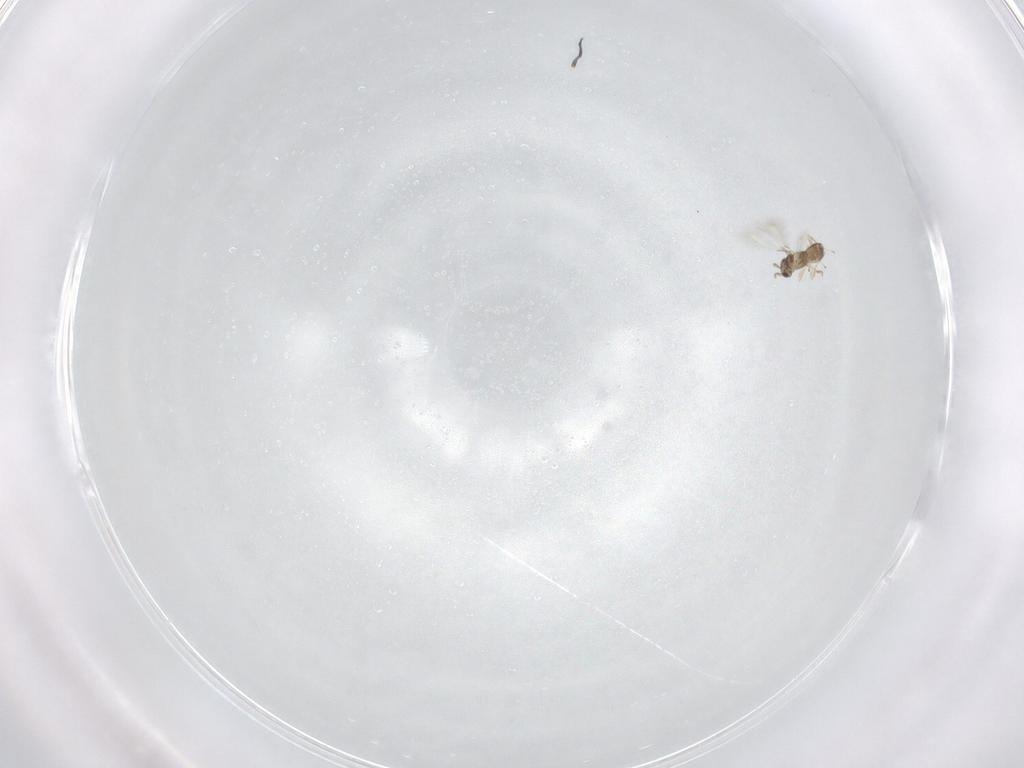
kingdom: Animalia
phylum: Arthropoda
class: Insecta
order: Hymenoptera
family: Mymaridae
